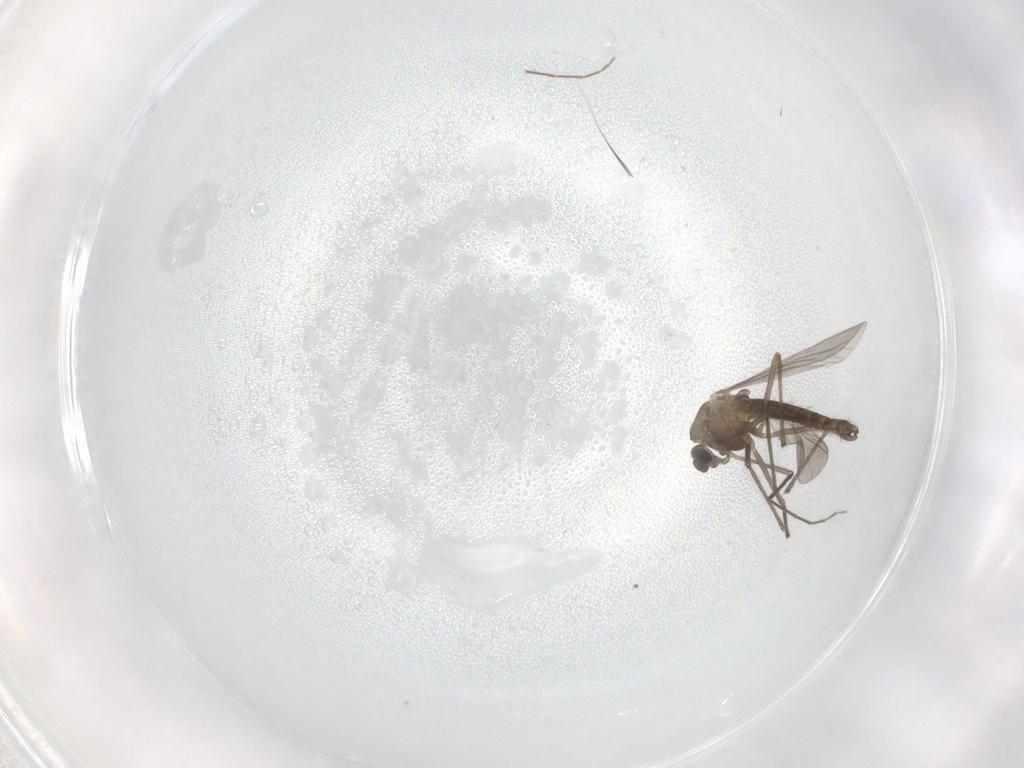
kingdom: Animalia
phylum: Arthropoda
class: Insecta
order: Diptera
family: Chironomidae
